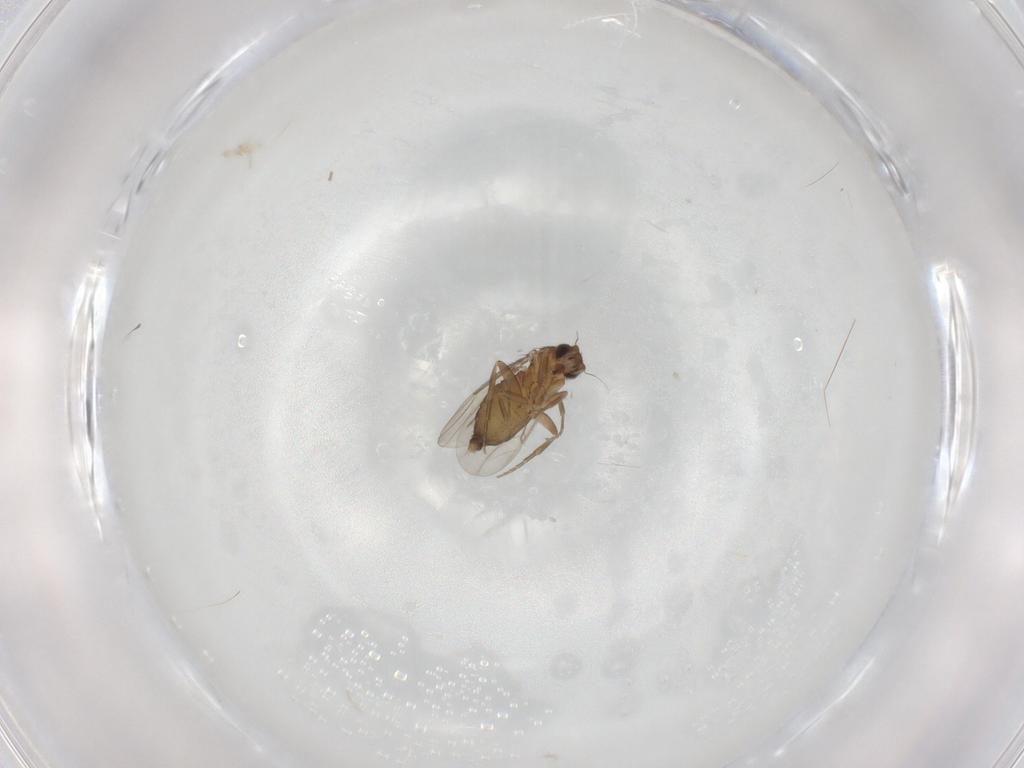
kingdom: Animalia
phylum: Arthropoda
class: Insecta
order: Diptera
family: Phoridae
